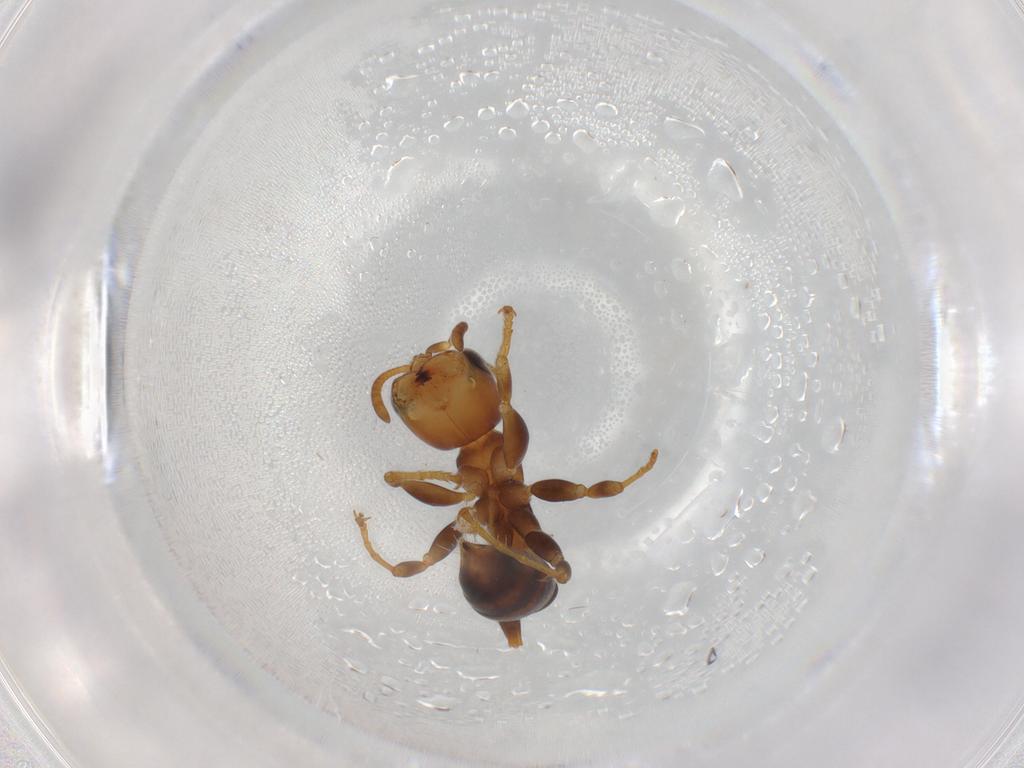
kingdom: Animalia
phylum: Arthropoda
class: Insecta
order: Hymenoptera
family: Formicidae
